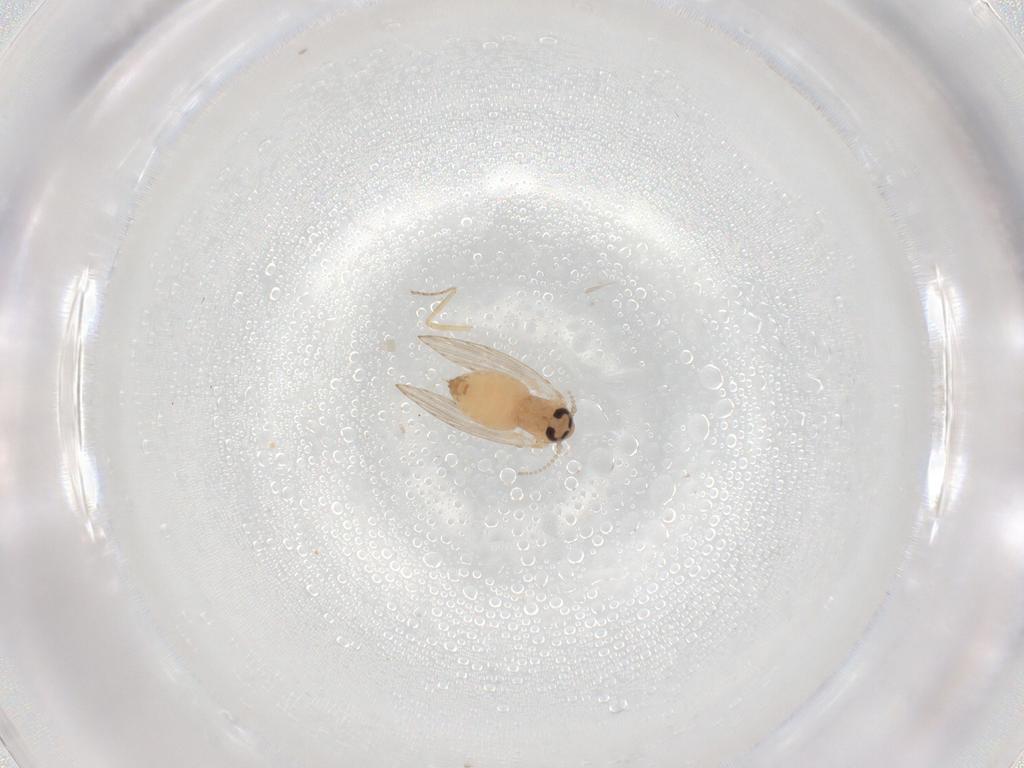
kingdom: Animalia
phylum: Arthropoda
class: Insecta
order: Diptera
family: Psychodidae
